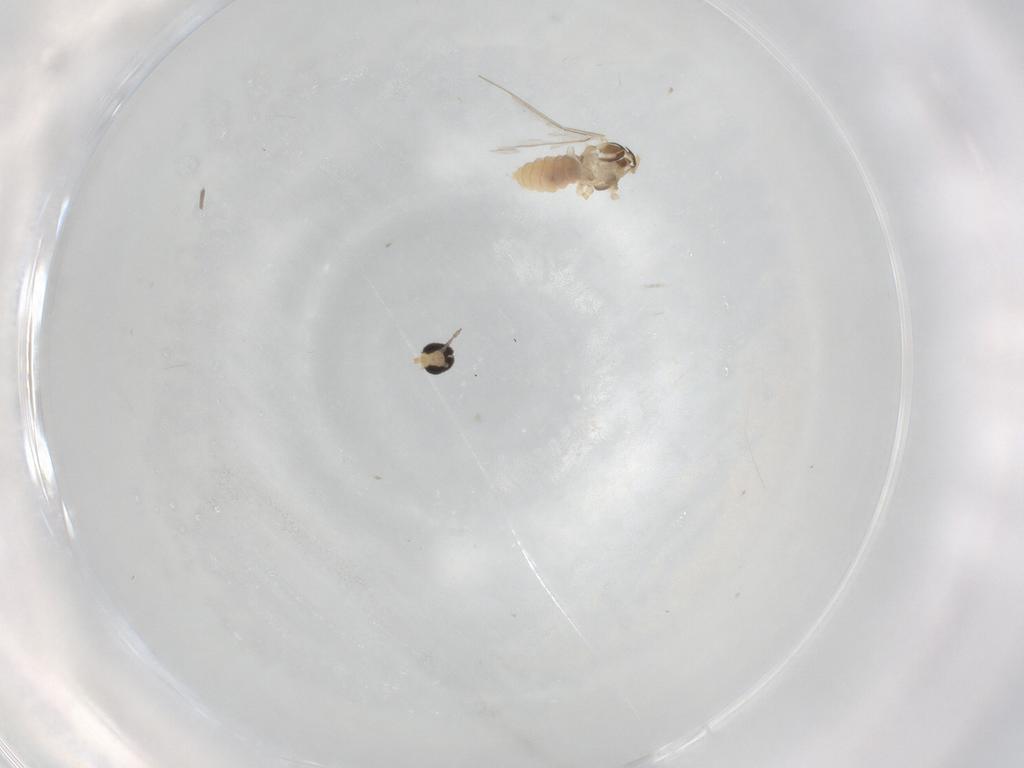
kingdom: Animalia
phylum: Arthropoda
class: Insecta
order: Diptera
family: Cecidomyiidae
